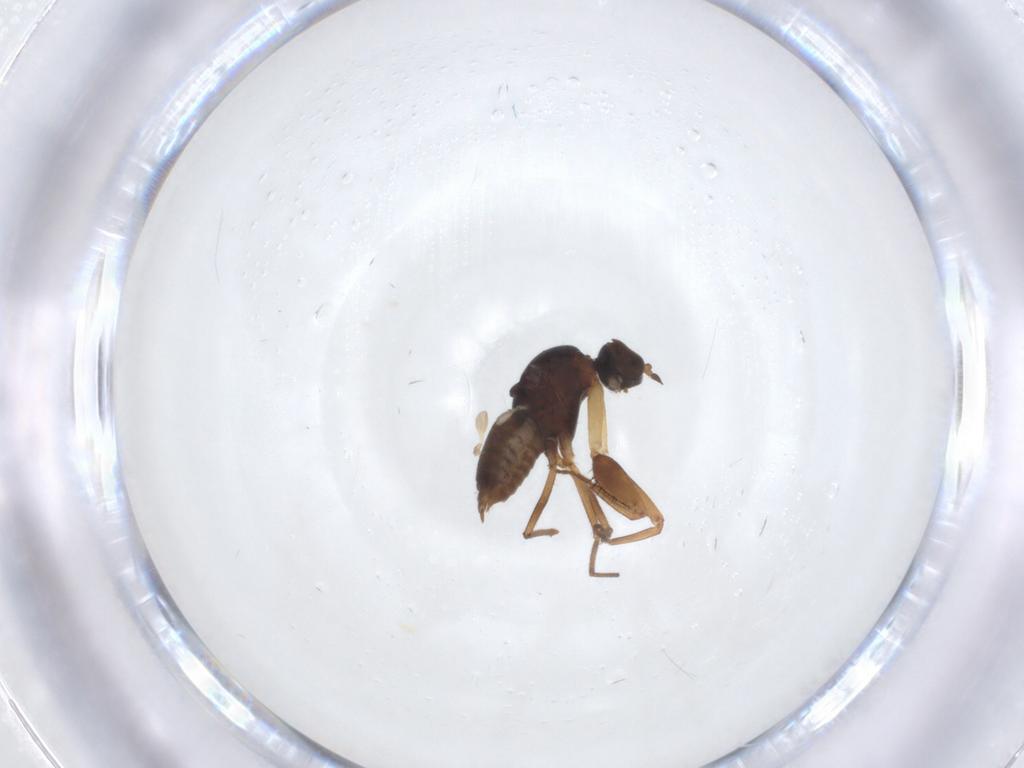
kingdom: Animalia
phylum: Arthropoda
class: Insecta
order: Diptera
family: Empididae
